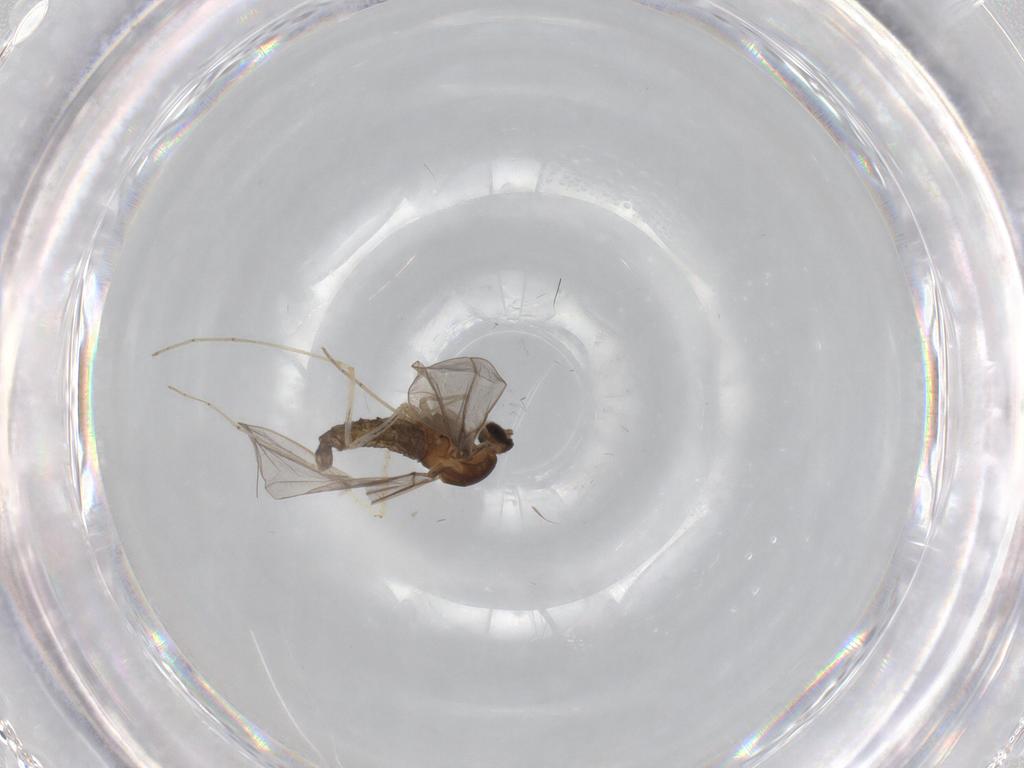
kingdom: Animalia
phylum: Arthropoda
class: Insecta
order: Diptera
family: Cecidomyiidae
